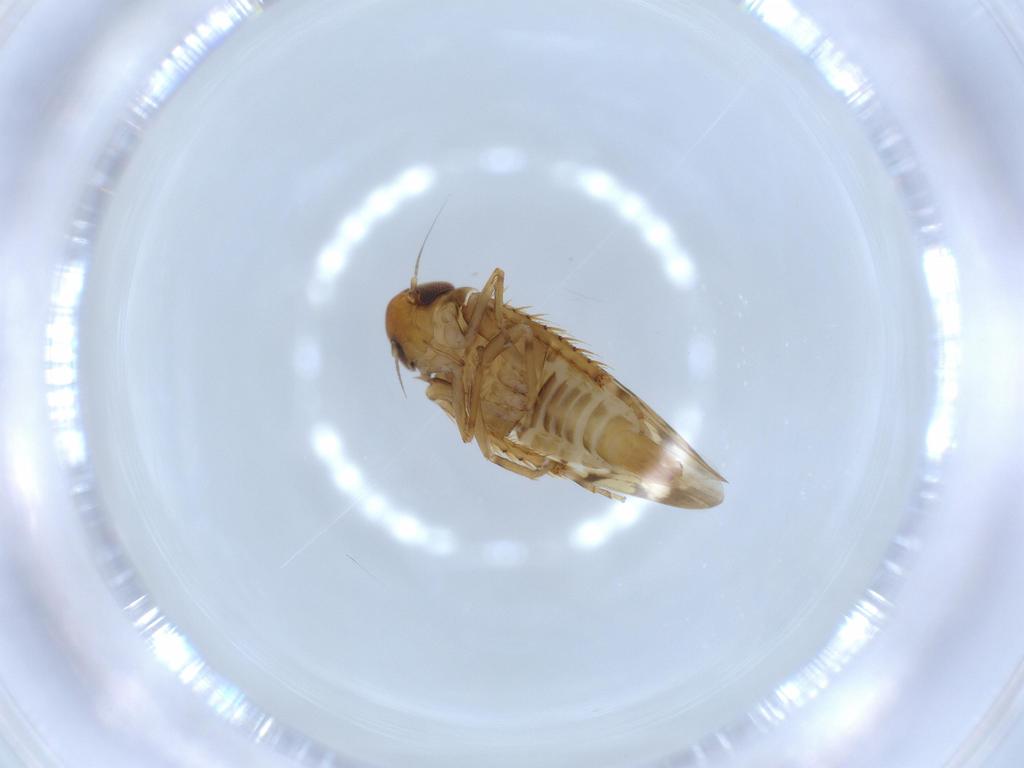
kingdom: Animalia
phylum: Arthropoda
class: Insecta
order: Hemiptera
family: Cicadellidae
